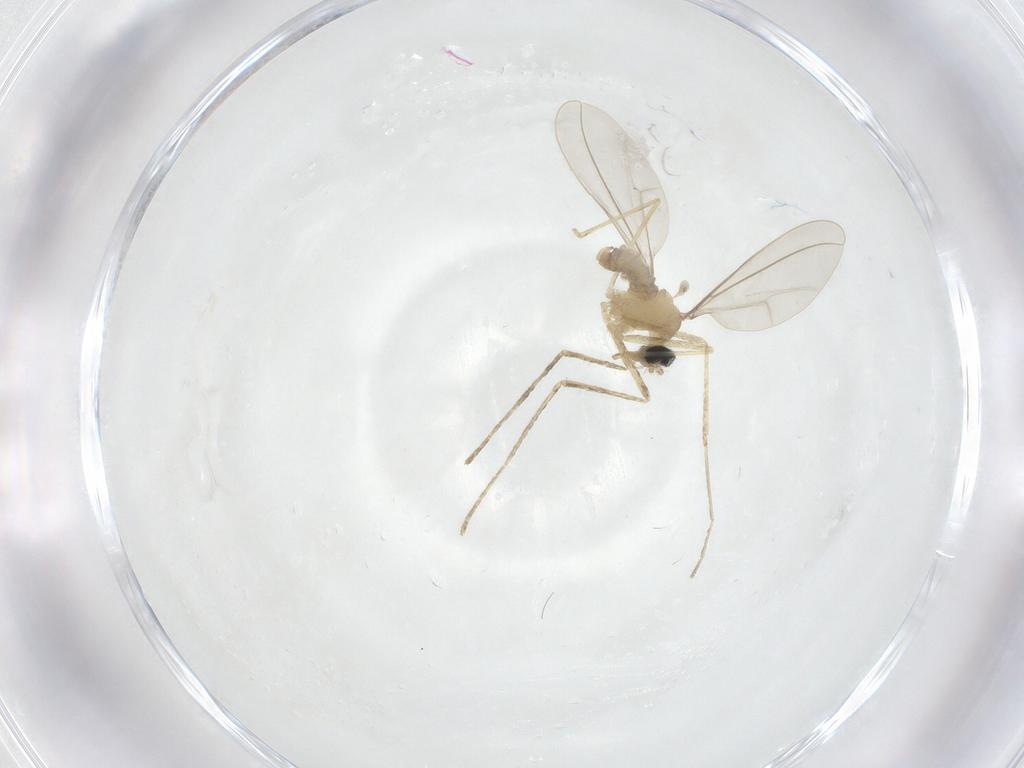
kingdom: Animalia
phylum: Arthropoda
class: Insecta
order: Diptera
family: Cecidomyiidae
